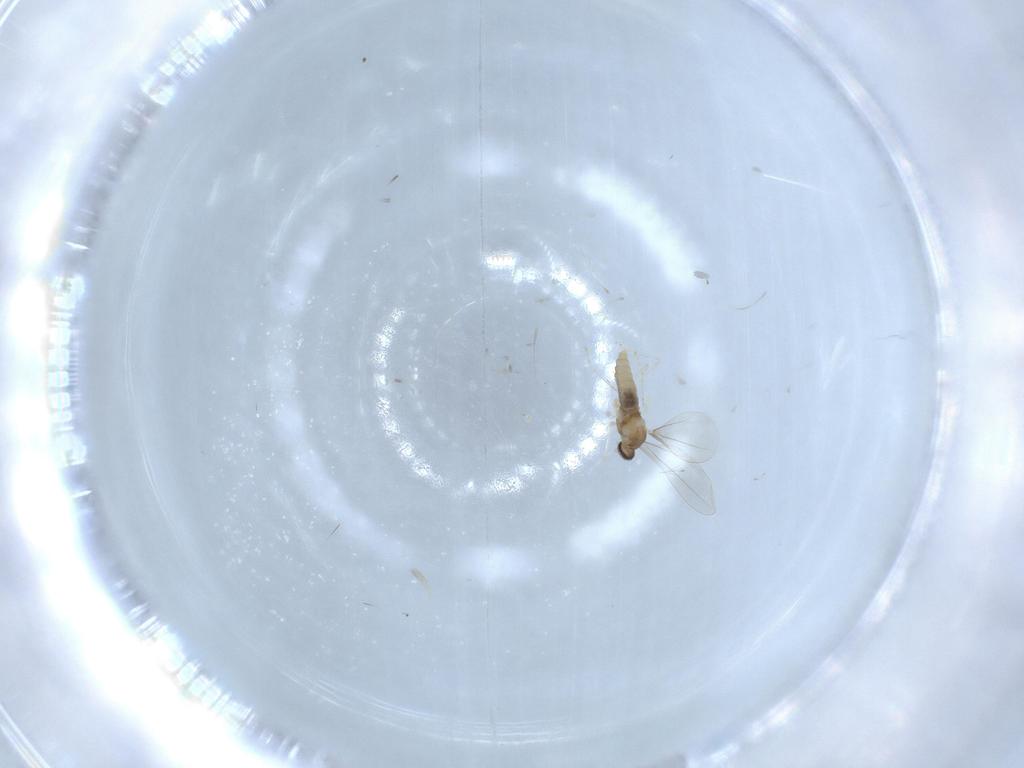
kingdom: Animalia
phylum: Arthropoda
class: Insecta
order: Diptera
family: Cecidomyiidae
